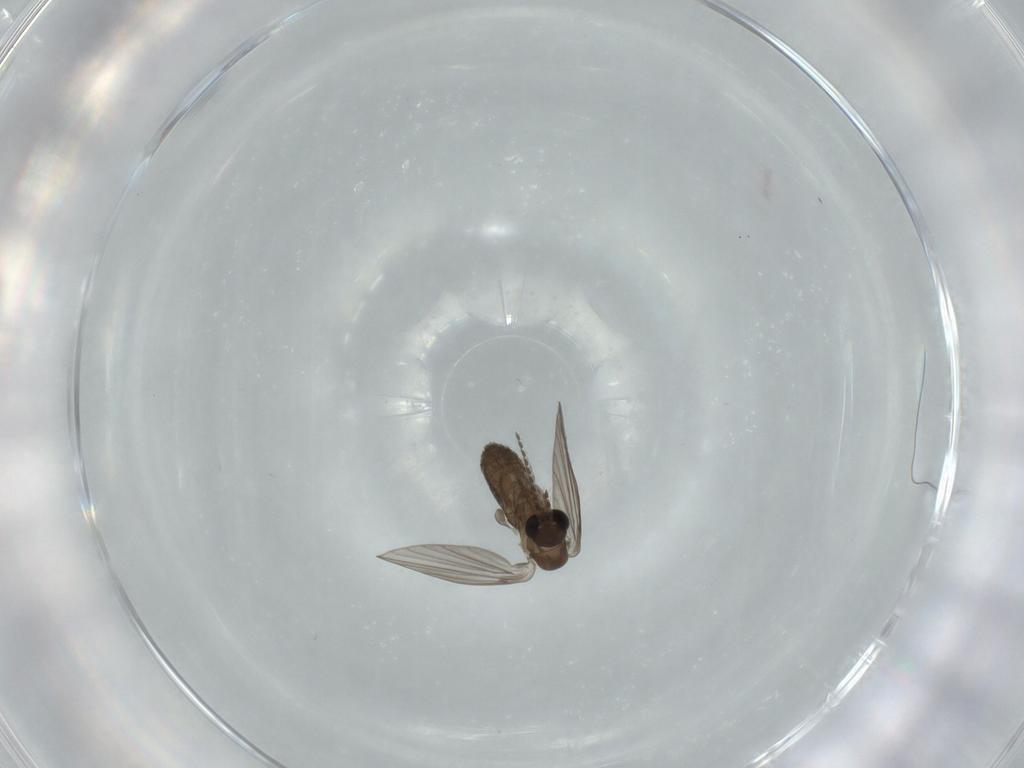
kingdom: Animalia
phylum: Arthropoda
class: Insecta
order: Diptera
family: Psychodidae
